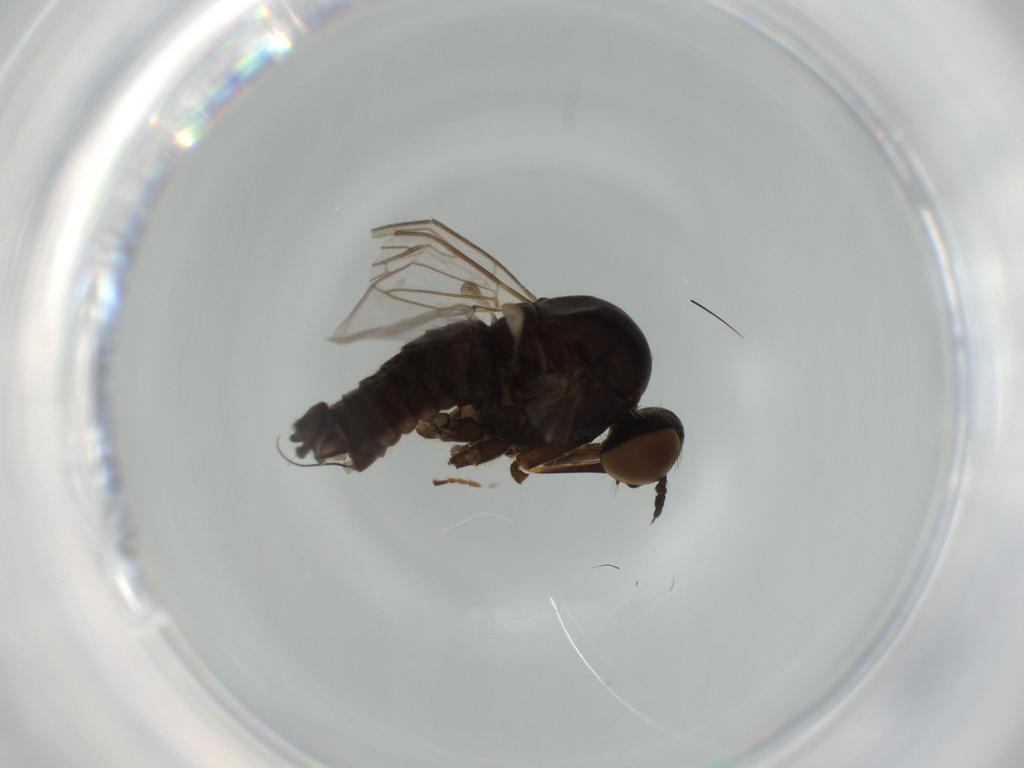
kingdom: Animalia
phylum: Arthropoda
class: Insecta
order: Diptera
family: Empididae
